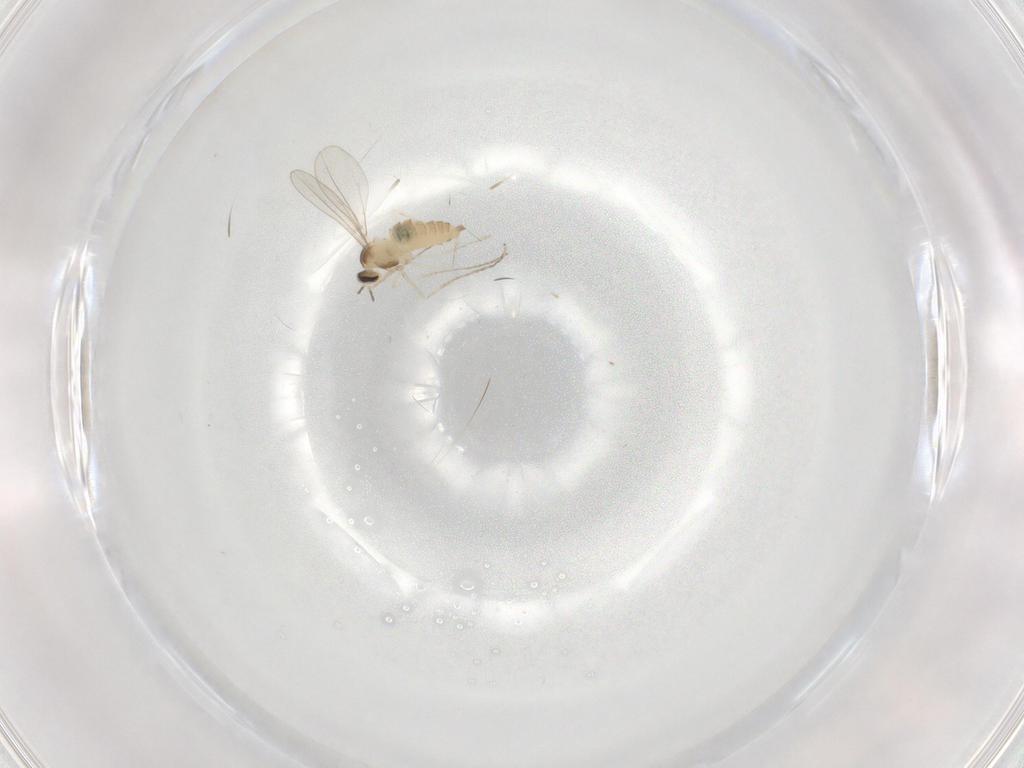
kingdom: Animalia
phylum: Arthropoda
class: Insecta
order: Diptera
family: Cecidomyiidae
